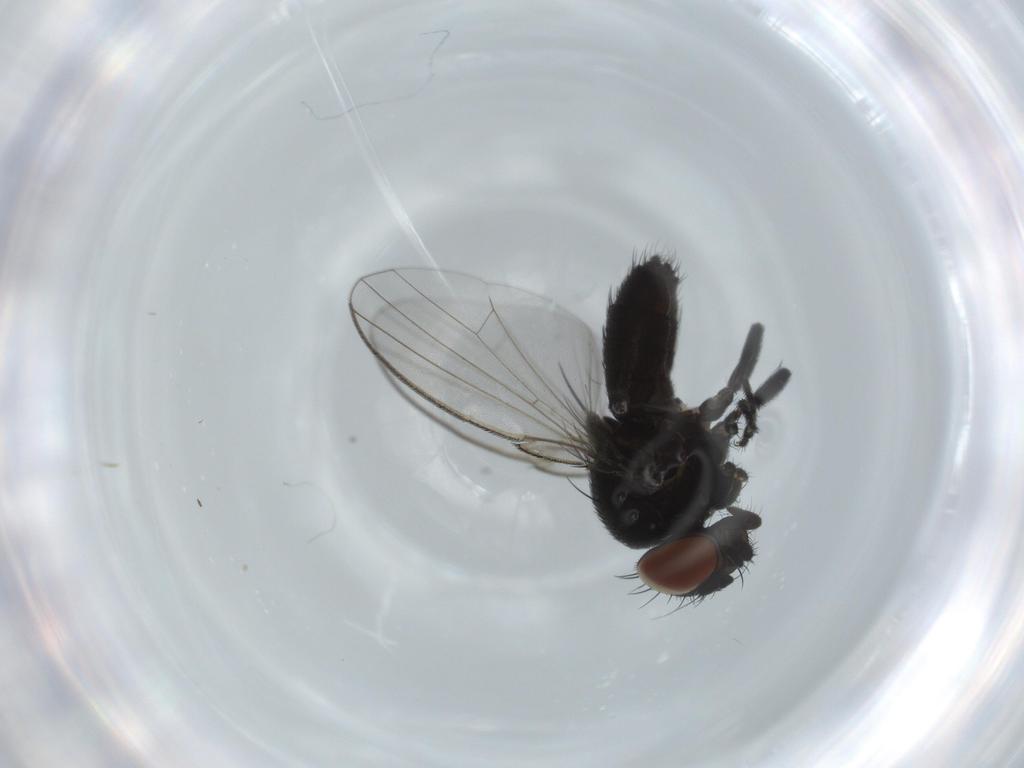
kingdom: Animalia
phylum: Arthropoda
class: Insecta
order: Diptera
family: Milichiidae
